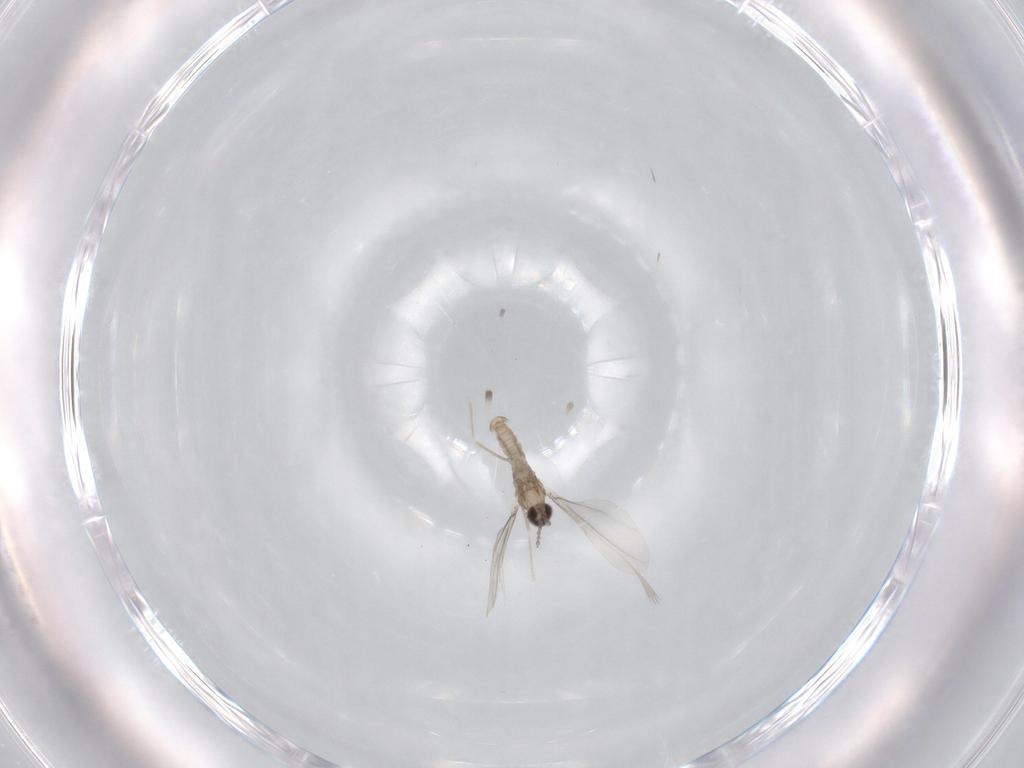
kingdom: Animalia
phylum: Arthropoda
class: Insecta
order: Diptera
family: Cecidomyiidae
